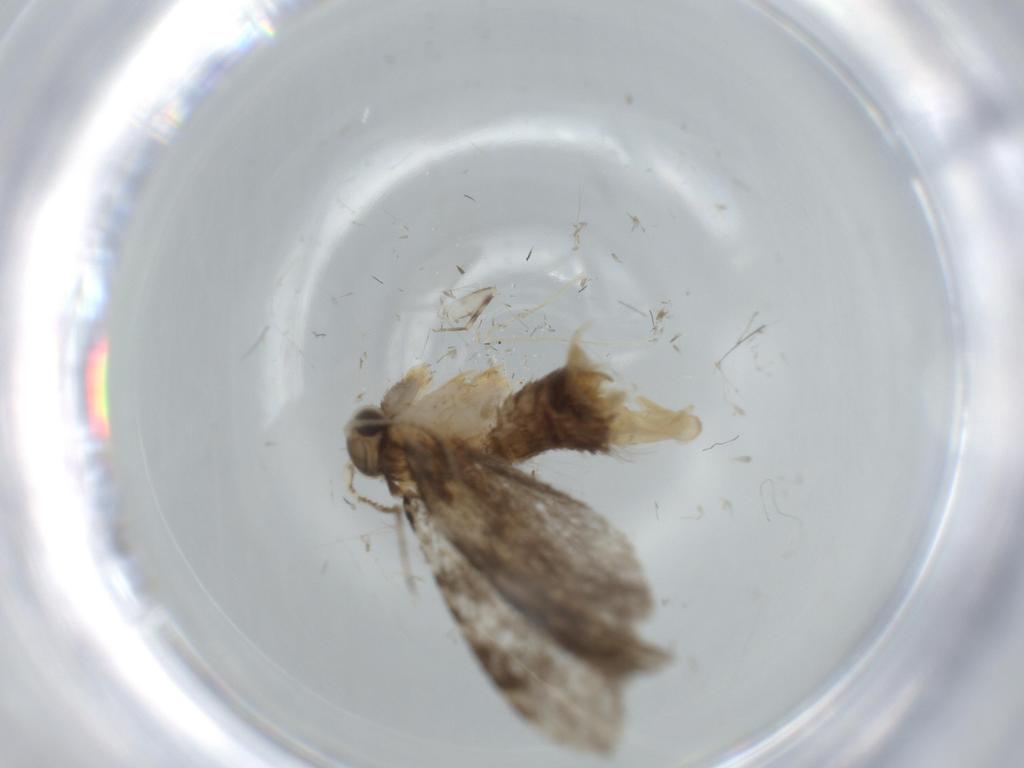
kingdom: Animalia
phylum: Arthropoda
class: Insecta
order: Lepidoptera
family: Tineidae
